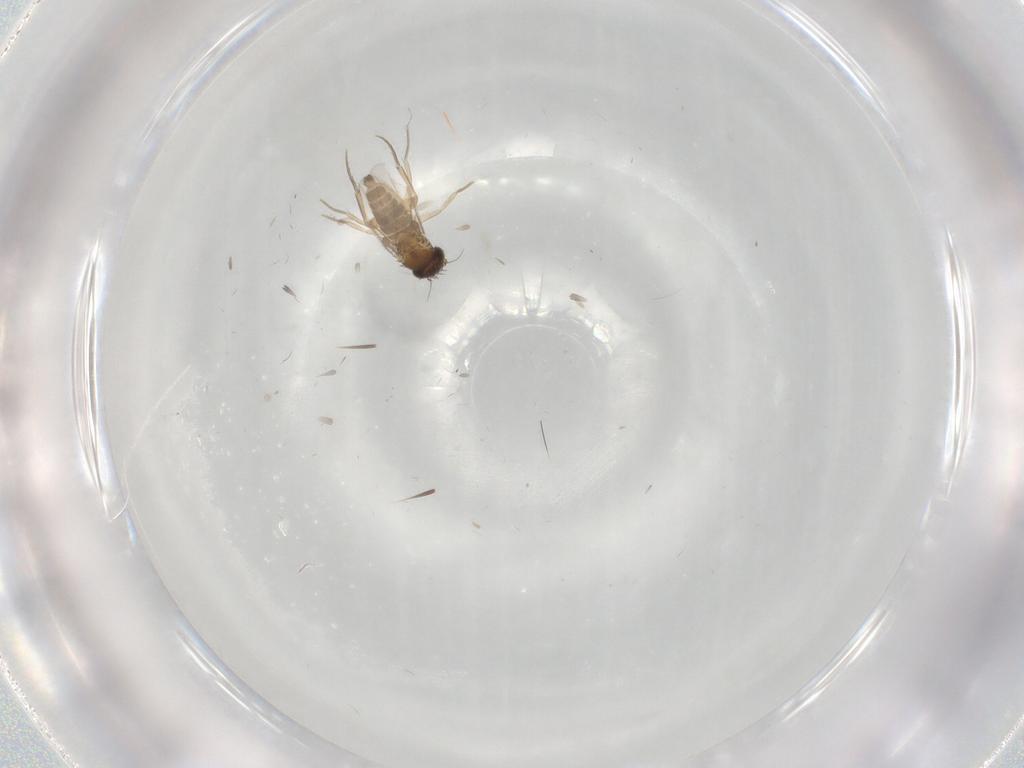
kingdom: Animalia
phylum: Arthropoda
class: Insecta
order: Diptera
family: Phoridae
